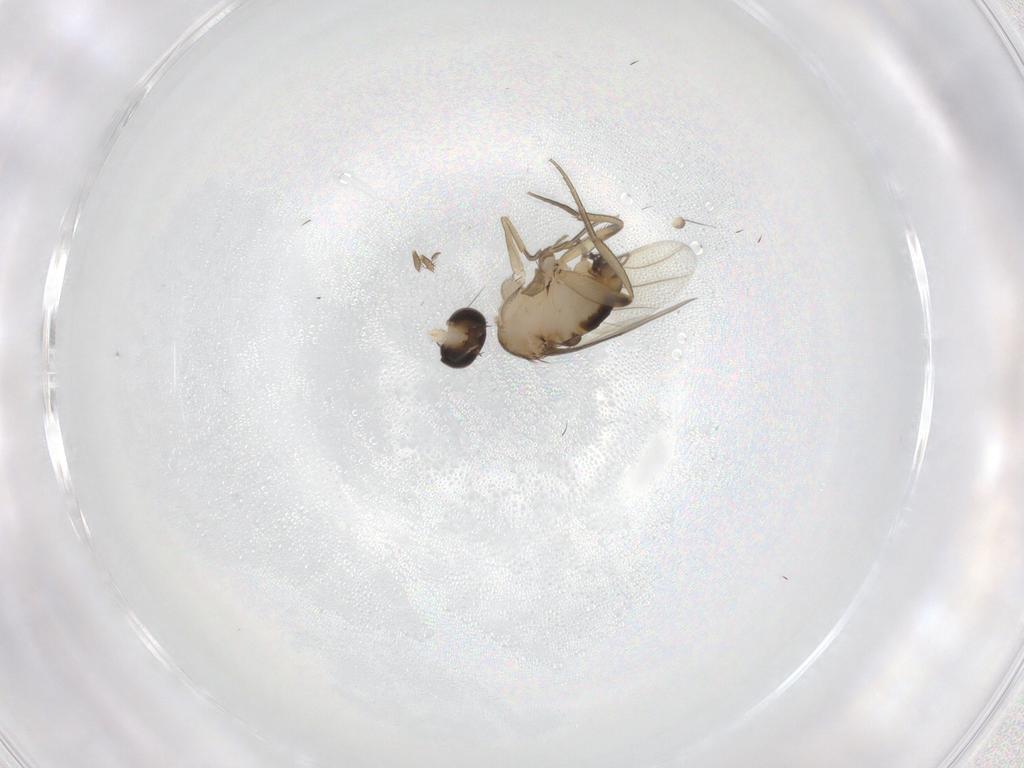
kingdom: Animalia
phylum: Arthropoda
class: Insecta
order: Diptera
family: Phoridae
